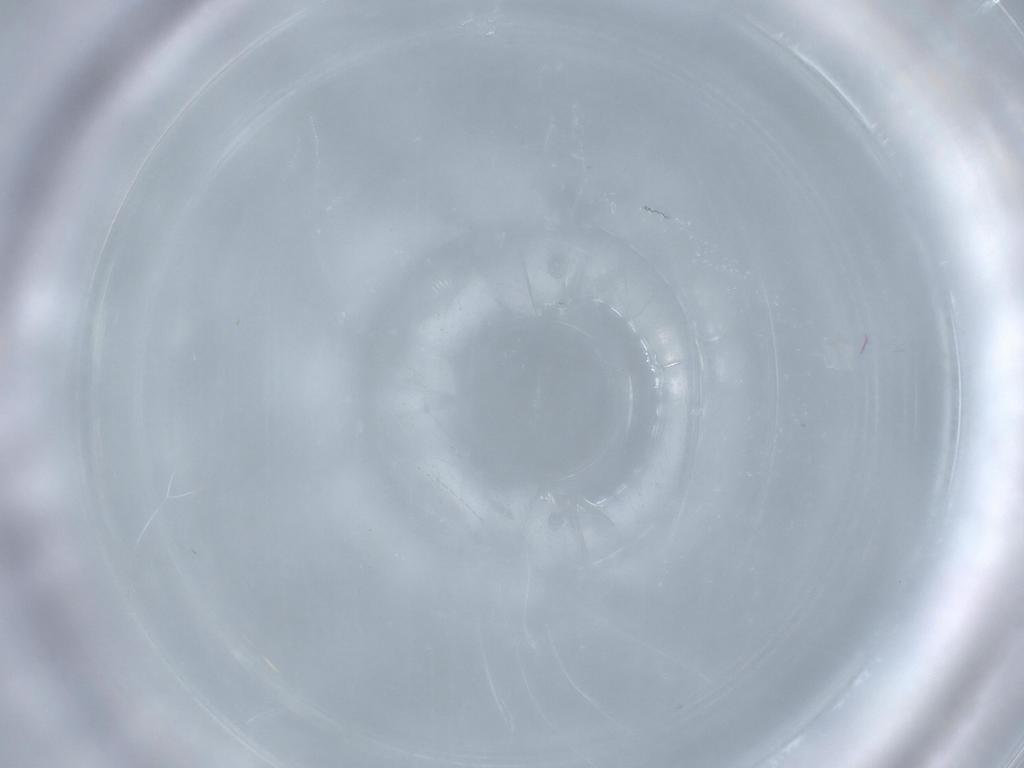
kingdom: Animalia
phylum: Arthropoda
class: Insecta
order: Diptera
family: Cecidomyiidae
